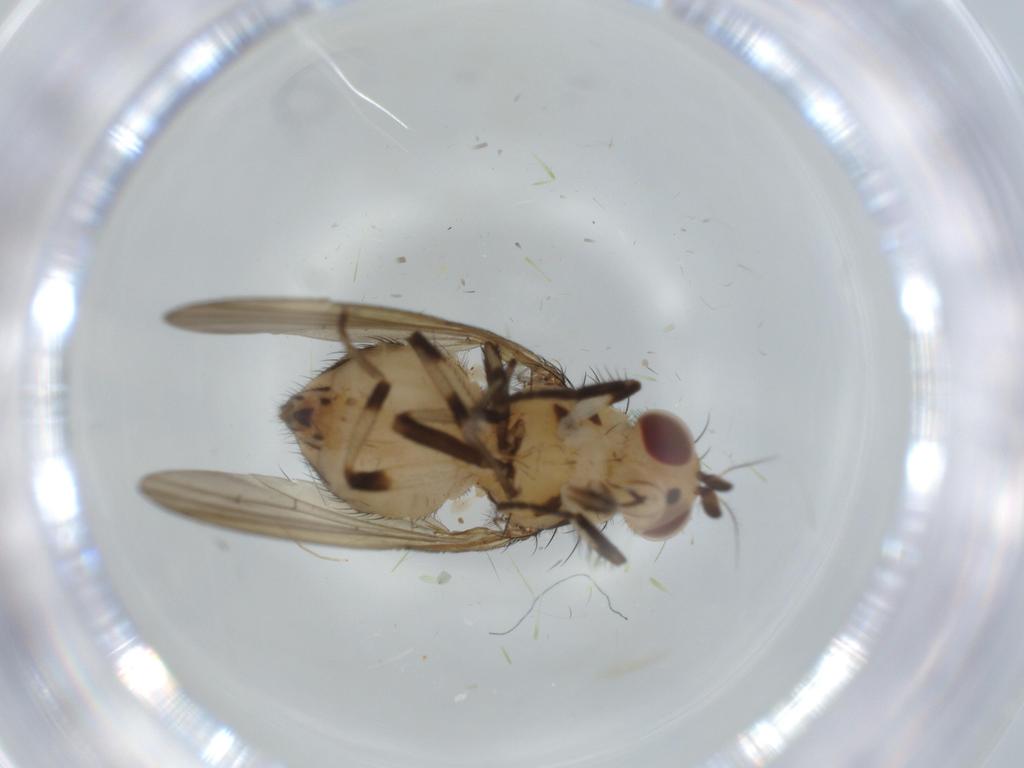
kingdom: Animalia
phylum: Arthropoda
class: Insecta
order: Diptera
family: Lauxaniidae
